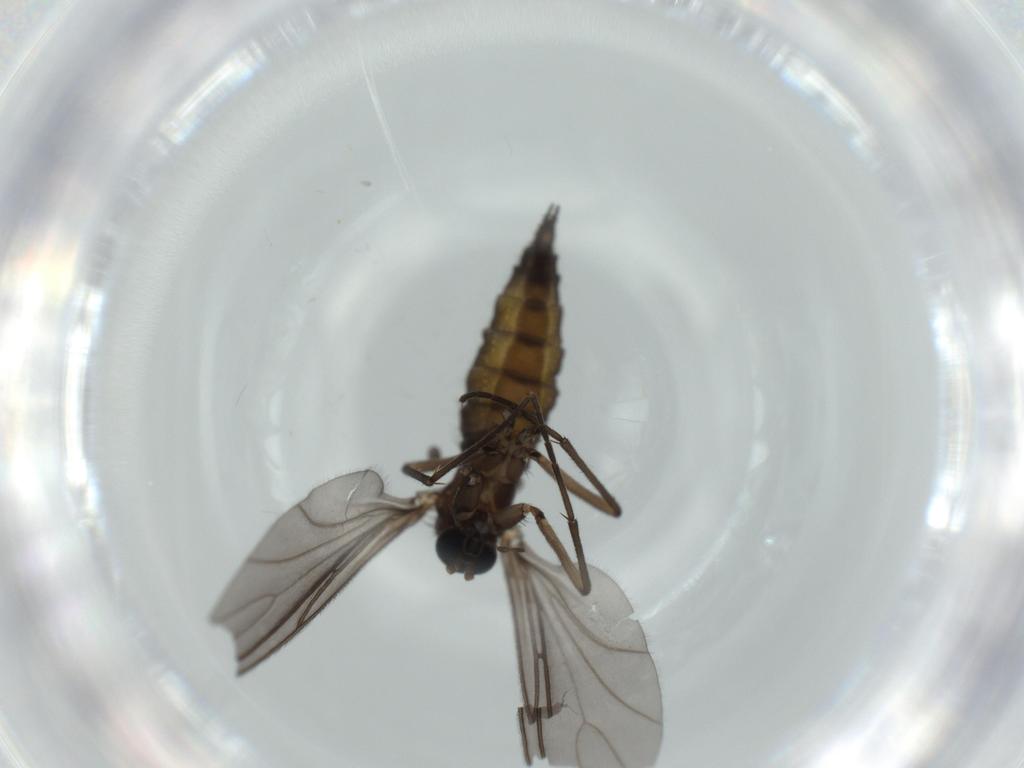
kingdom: Animalia
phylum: Arthropoda
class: Insecta
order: Diptera
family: Sciaridae
